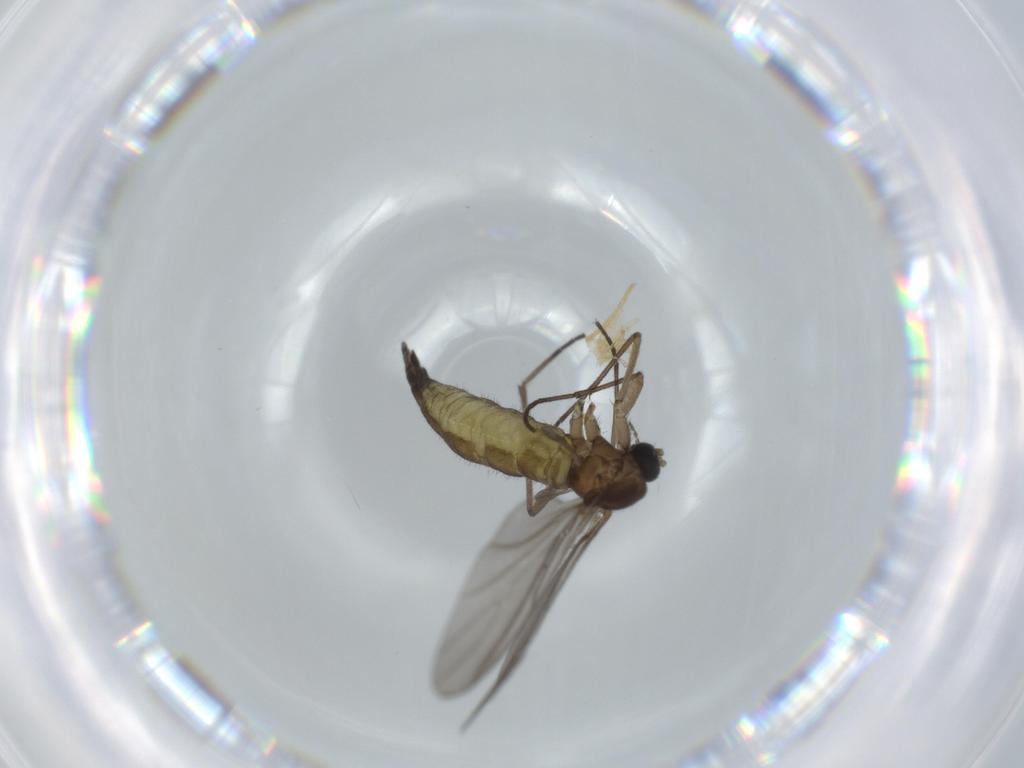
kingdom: Animalia
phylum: Arthropoda
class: Insecta
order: Diptera
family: Sciaridae
